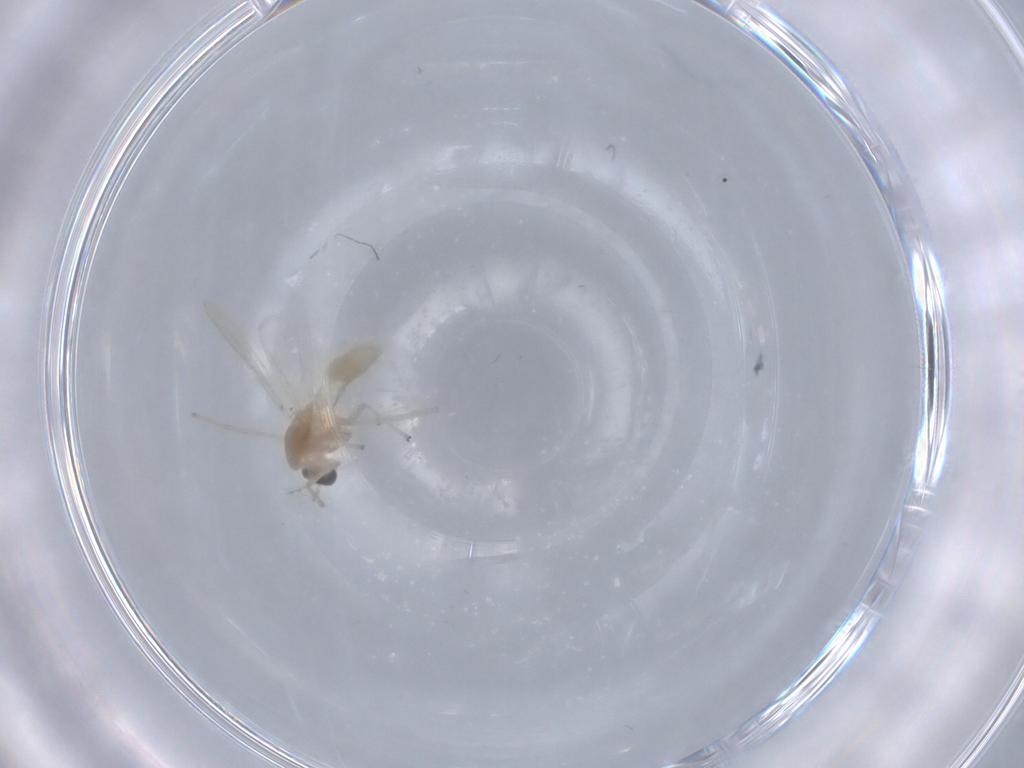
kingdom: Animalia
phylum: Arthropoda
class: Insecta
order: Diptera
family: Chironomidae
